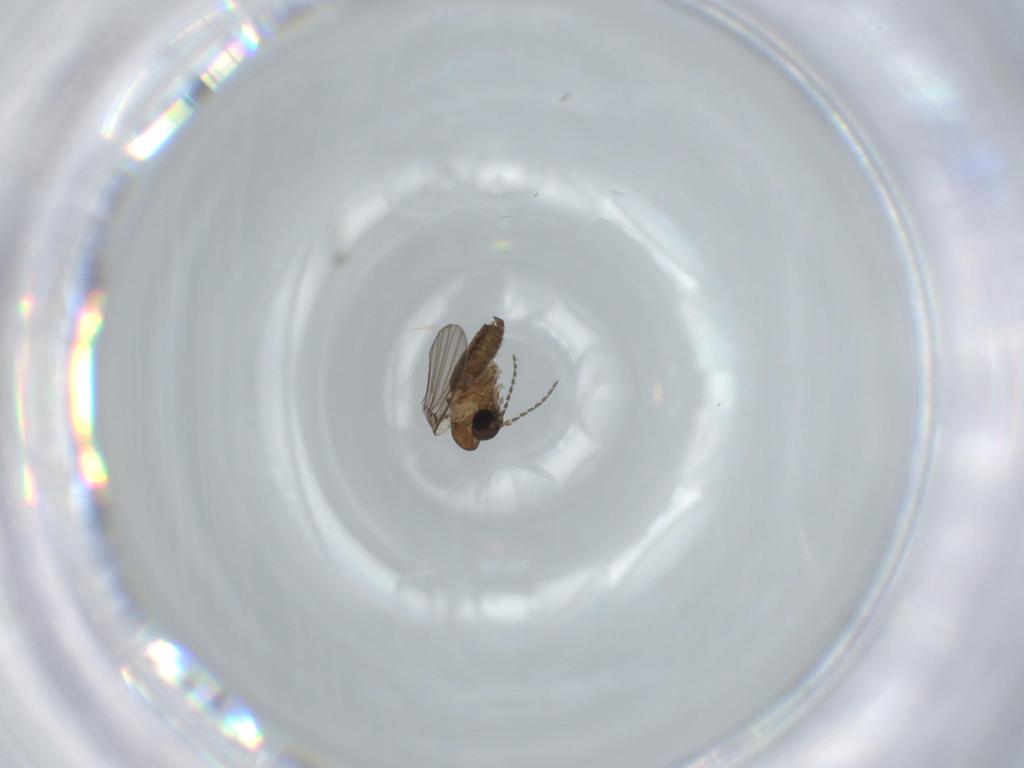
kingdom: Animalia
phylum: Arthropoda
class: Insecta
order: Diptera
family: Psychodidae
